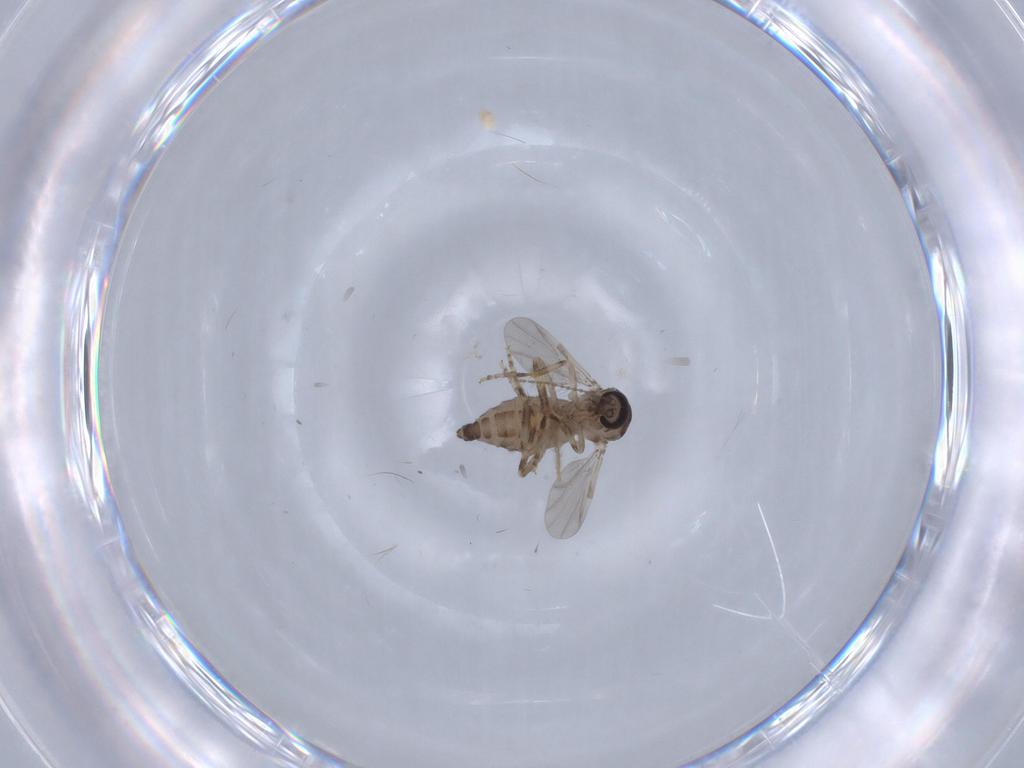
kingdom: Animalia
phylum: Arthropoda
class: Insecta
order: Diptera
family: Ceratopogonidae
